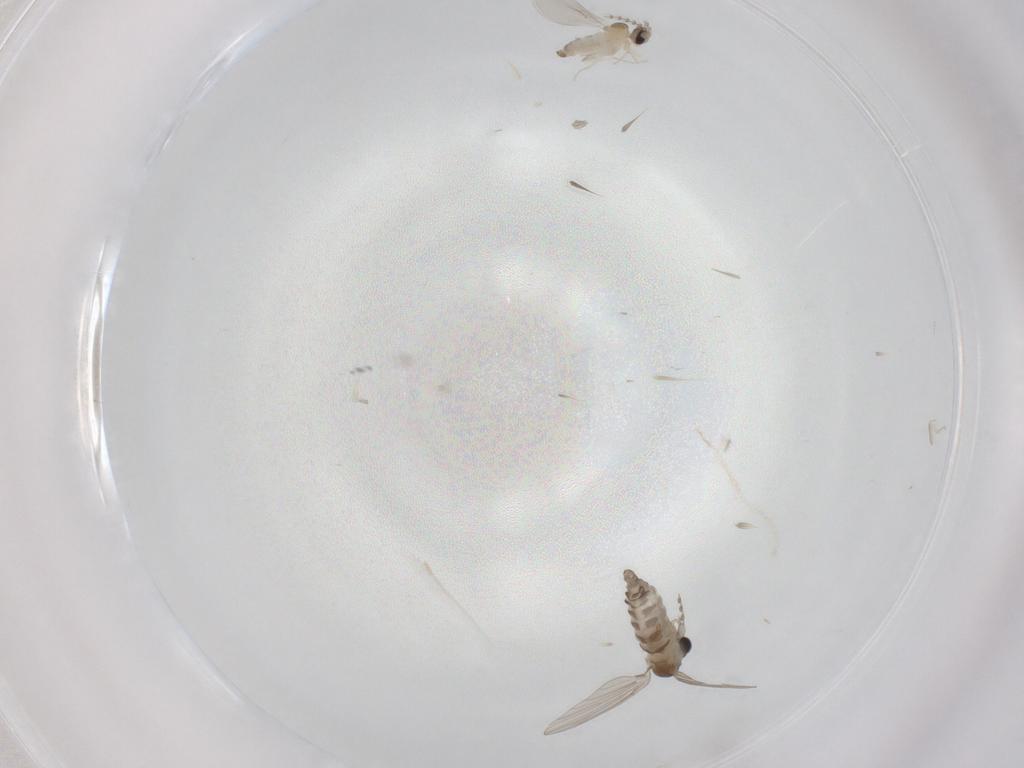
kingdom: Animalia
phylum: Arthropoda
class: Insecta
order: Diptera
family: Cecidomyiidae
